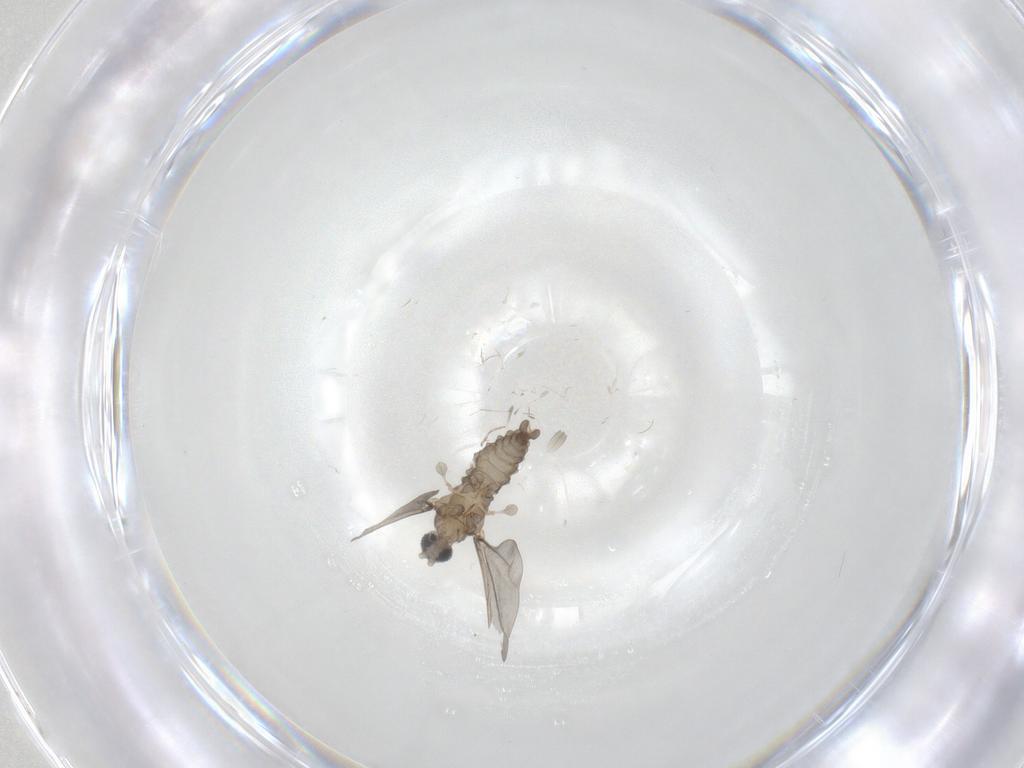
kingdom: Animalia
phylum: Arthropoda
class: Insecta
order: Diptera
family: Cecidomyiidae
